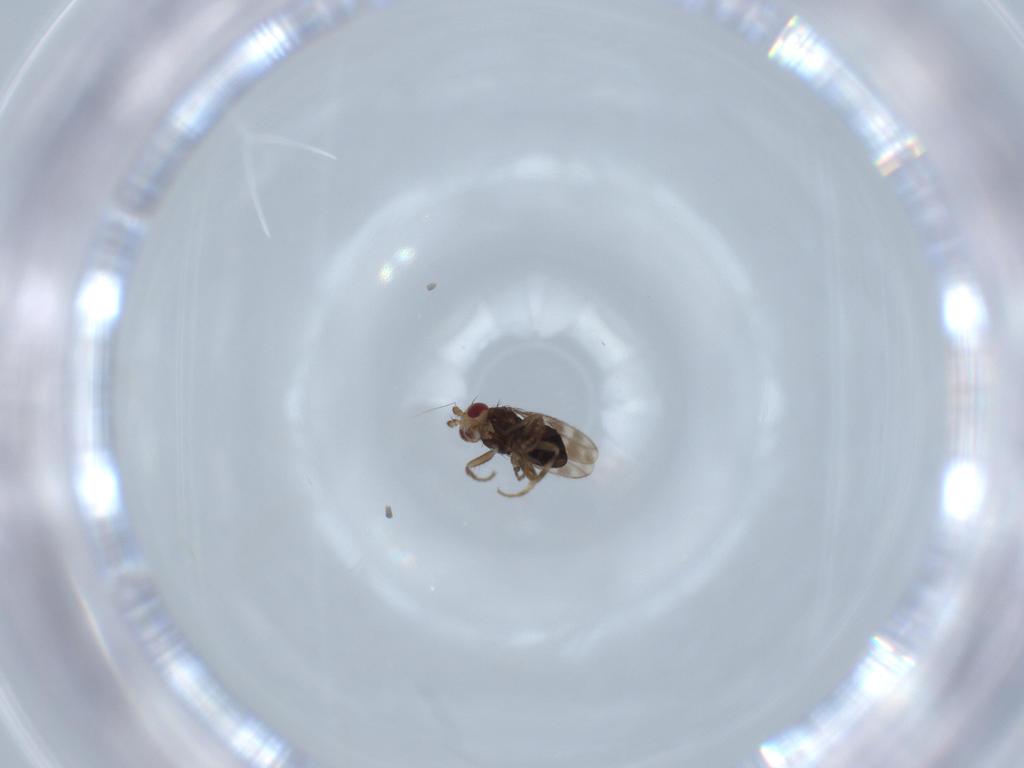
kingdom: Animalia
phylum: Arthropoda
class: Insecta
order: Diptera
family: Sphaeroceridae
